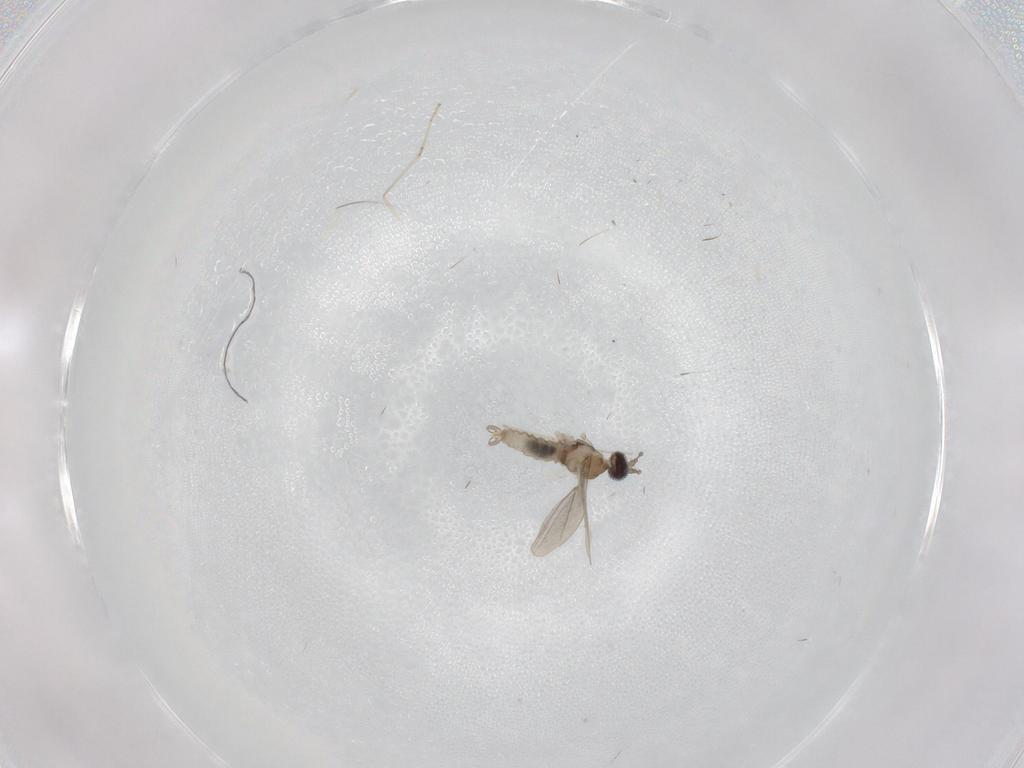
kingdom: Animalia
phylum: Arthropoda
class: Insecta
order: Diptera
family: Cecidomyiidae
